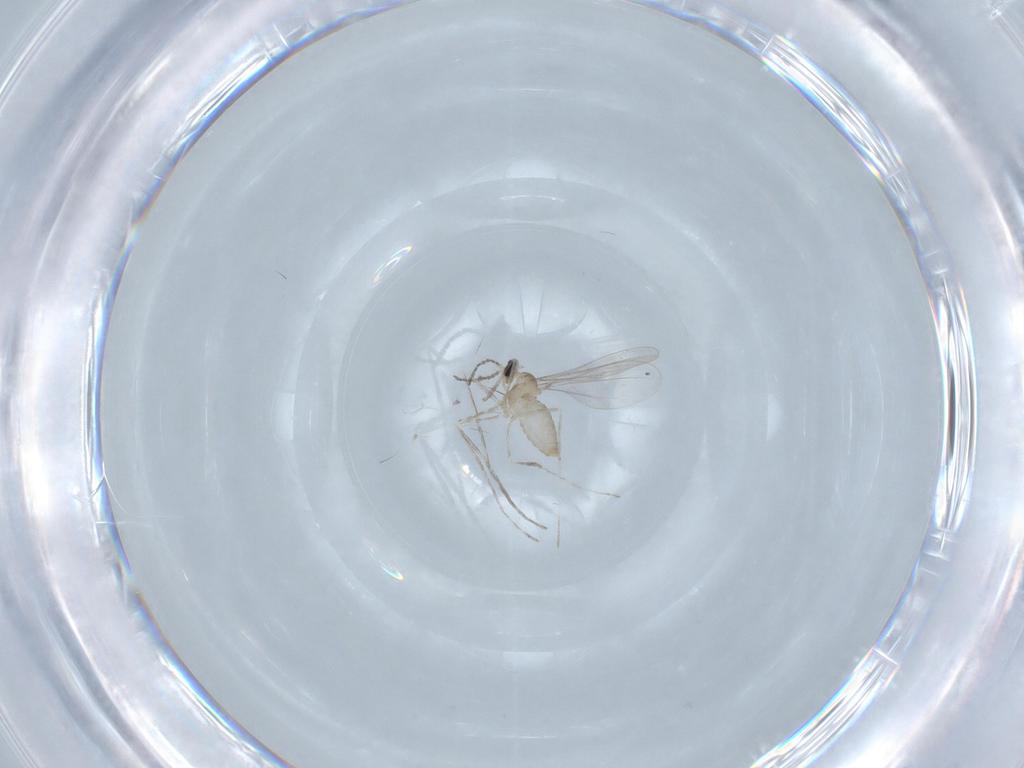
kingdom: Animalia
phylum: Arthropoda
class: Insecta
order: Diptera
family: Cecidomyiidae
